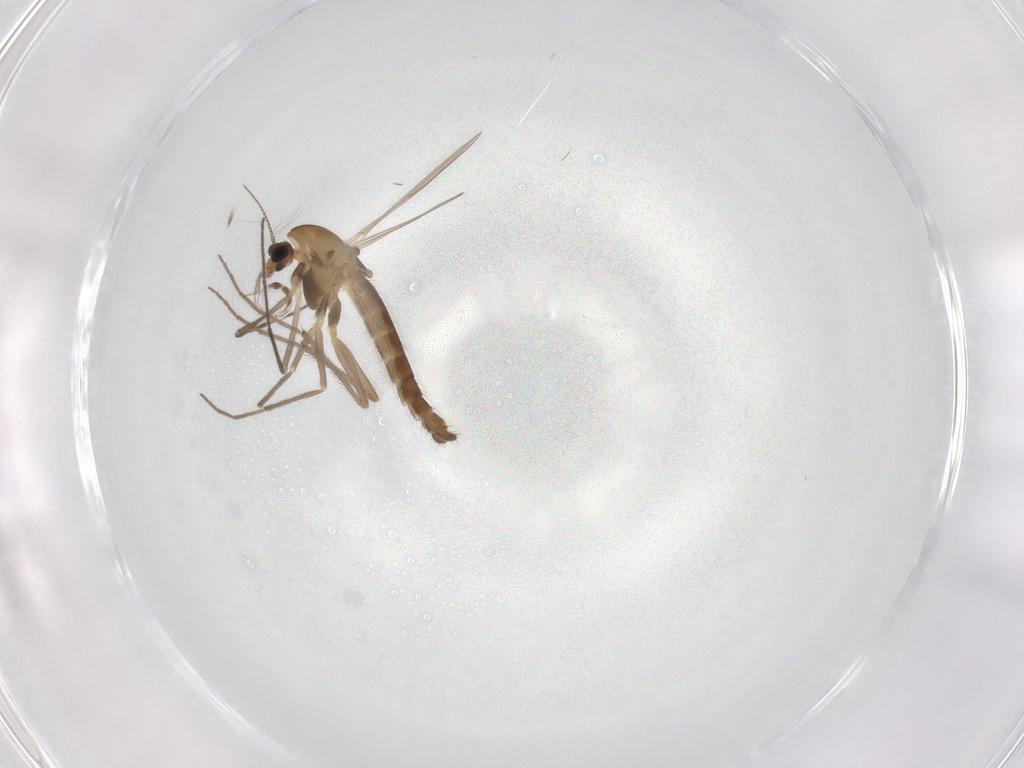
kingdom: Animalia
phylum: Arthropoda
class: Insecta
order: Diptera
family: Chironomidae
